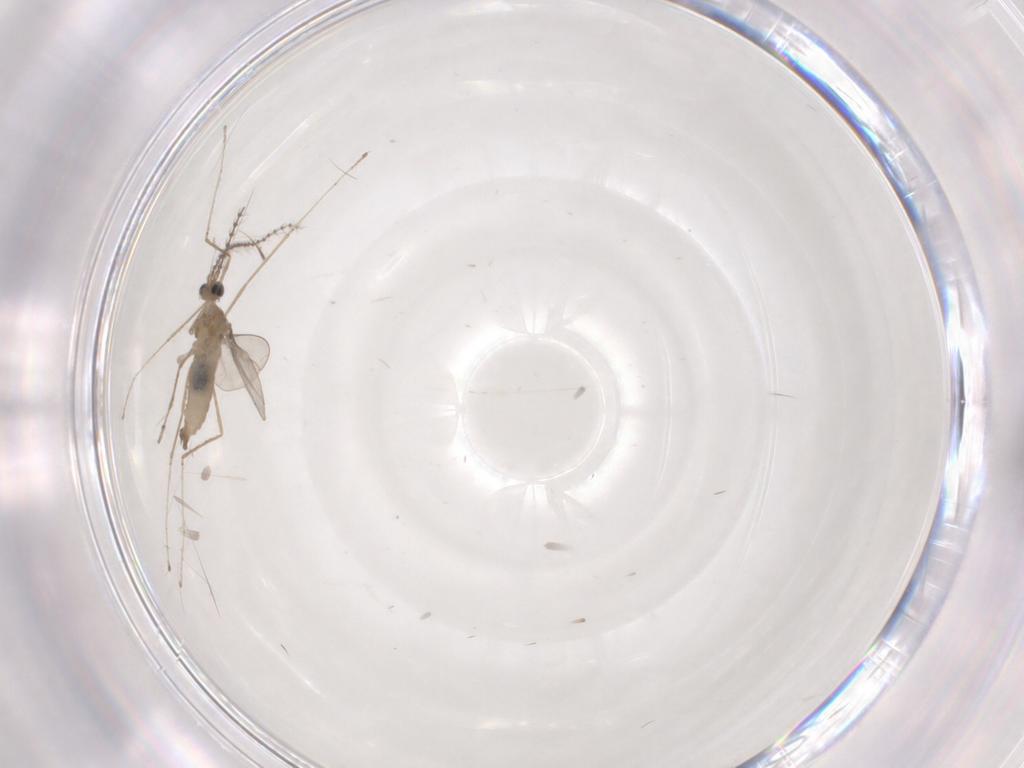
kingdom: Animalia
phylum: Arthropoda
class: Insecta
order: Diptera
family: Cecidomyiidae
